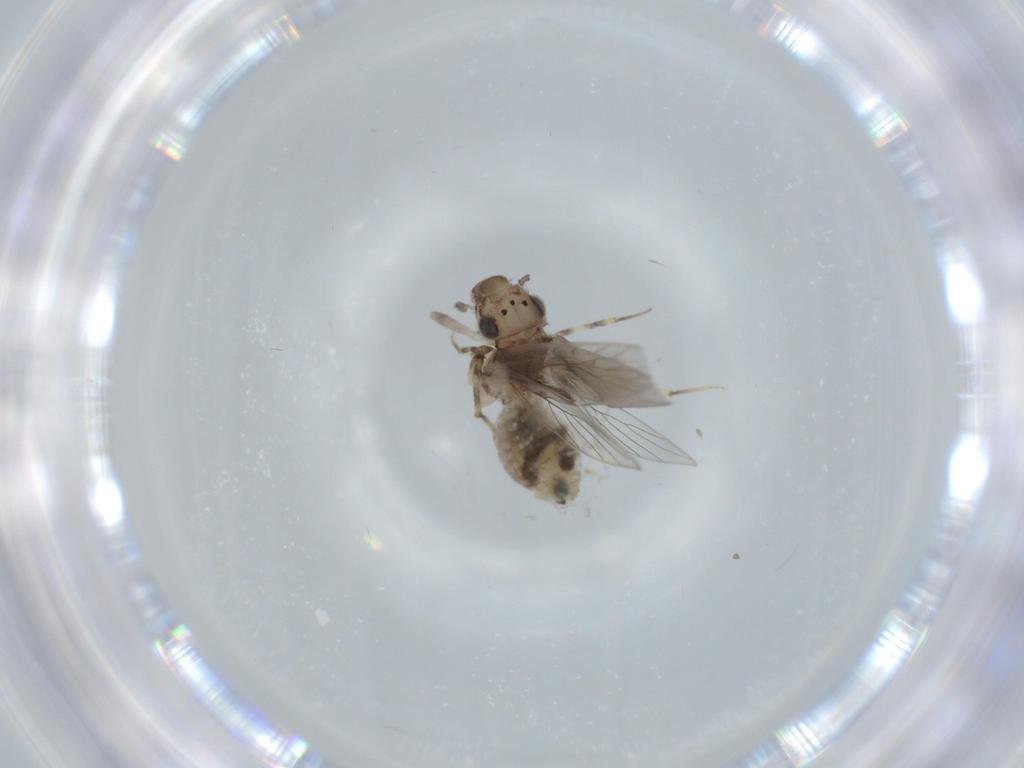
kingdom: Animalia
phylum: Arthropoda
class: Insecta
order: Psocodea
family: Lepidopsocidae
